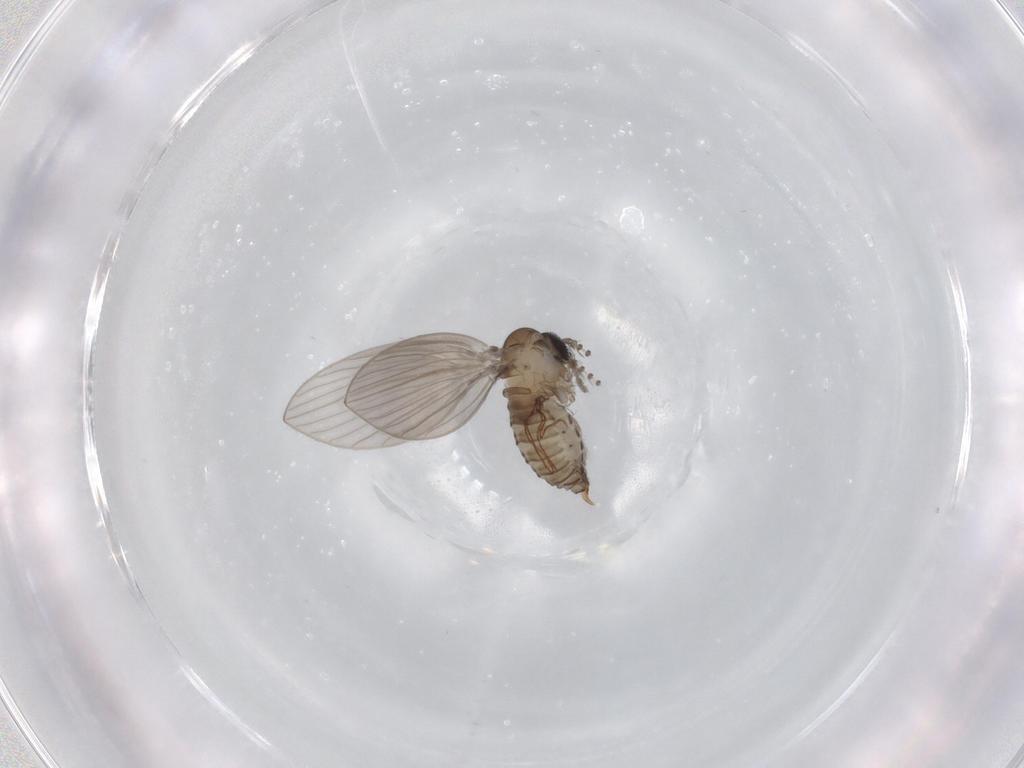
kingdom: Animalia
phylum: Arthropoda
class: Insecta
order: Diptera
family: Psychodidae
